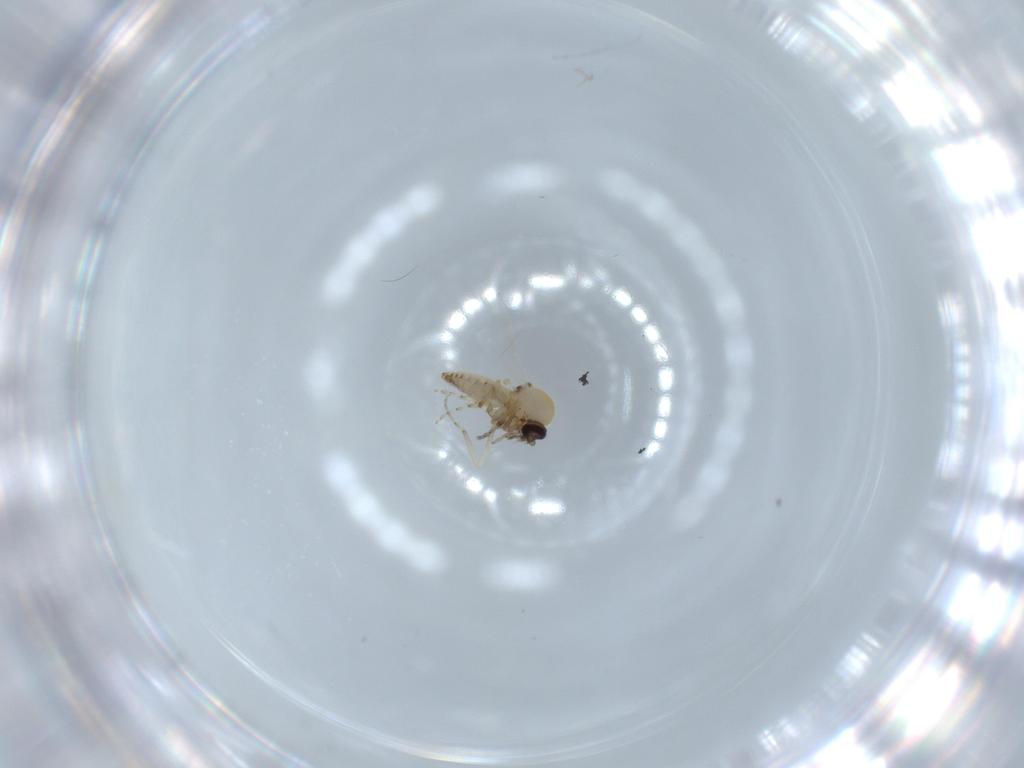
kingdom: Animalia
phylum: Arthropoda
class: Insecta
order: Diptera
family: Ceratopogonidae
